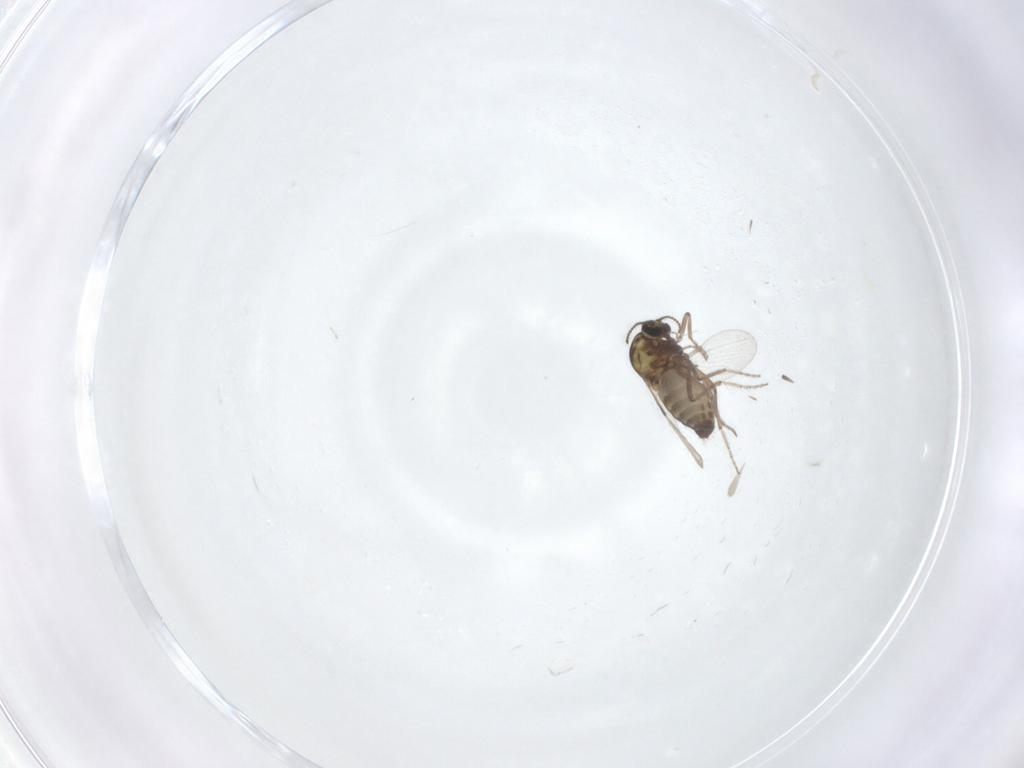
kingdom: Animalia
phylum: Arthropoda
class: Insecta
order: Diptera
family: Ceratopogonidae
